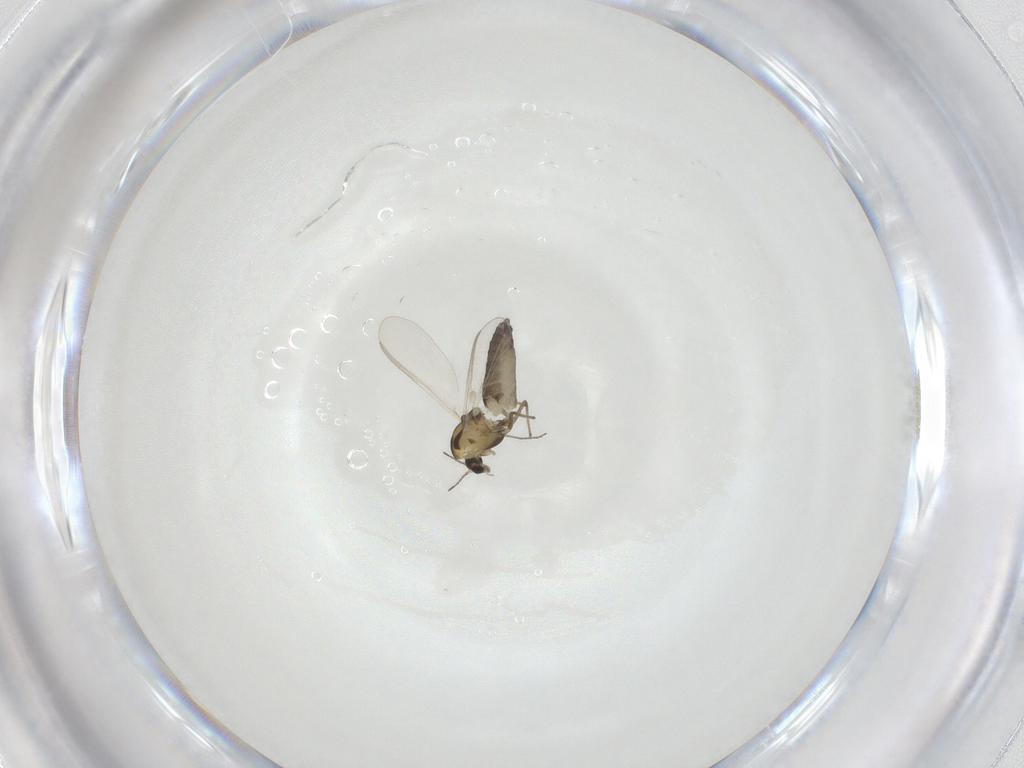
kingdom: Animalia
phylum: Arthropoda
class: Insecta
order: Diptera
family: Chironomidae
